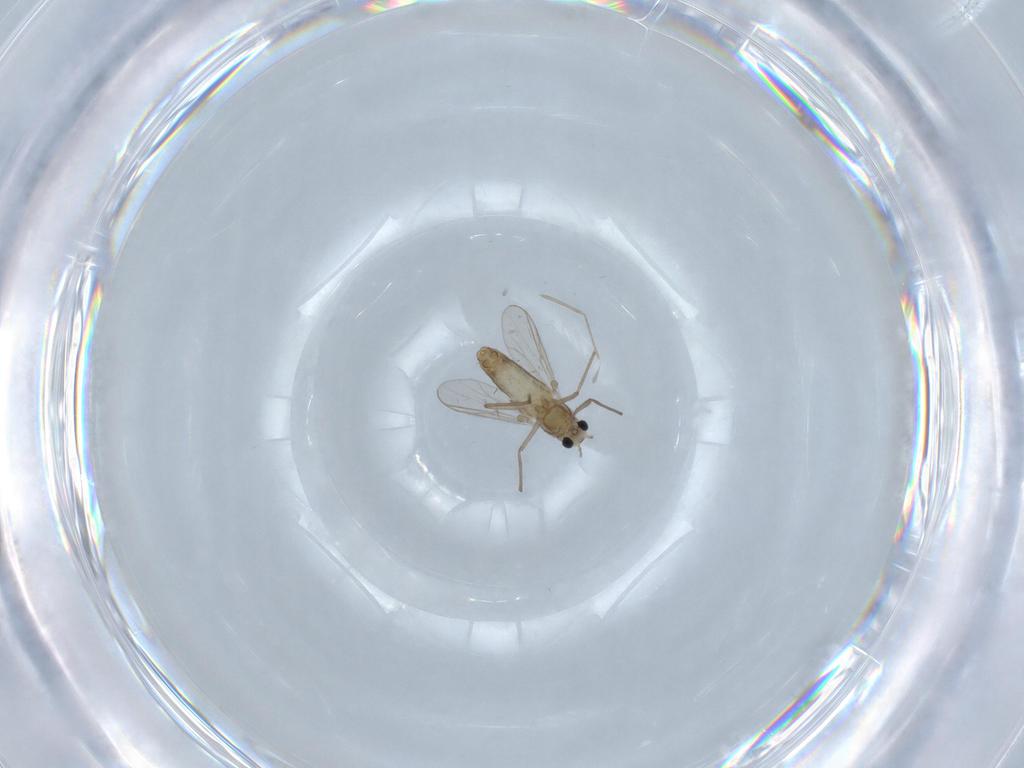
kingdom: Animalia
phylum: Arthropoda
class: Insecta
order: Diptera
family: Chironomidae
